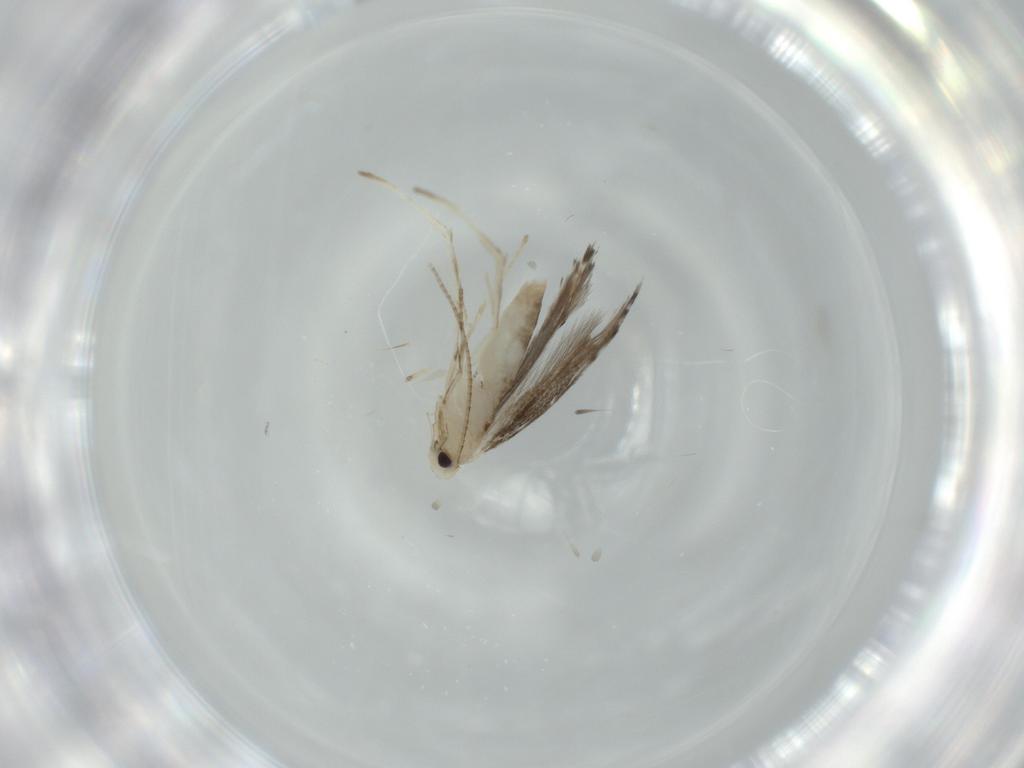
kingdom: Animalia
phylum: Arthropoda
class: Insecta
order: Lepidoptera
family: Gracillariidae
